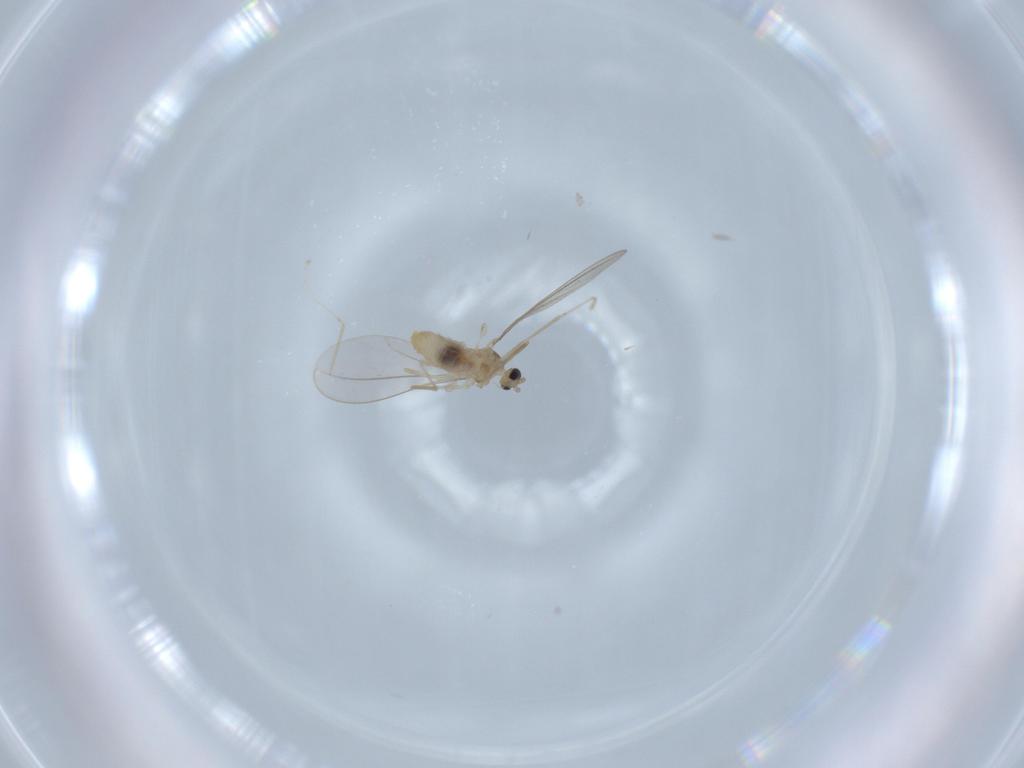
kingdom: Animalia
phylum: Arthropoda
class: Insecta
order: Diptera
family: Cecidomyiidae
